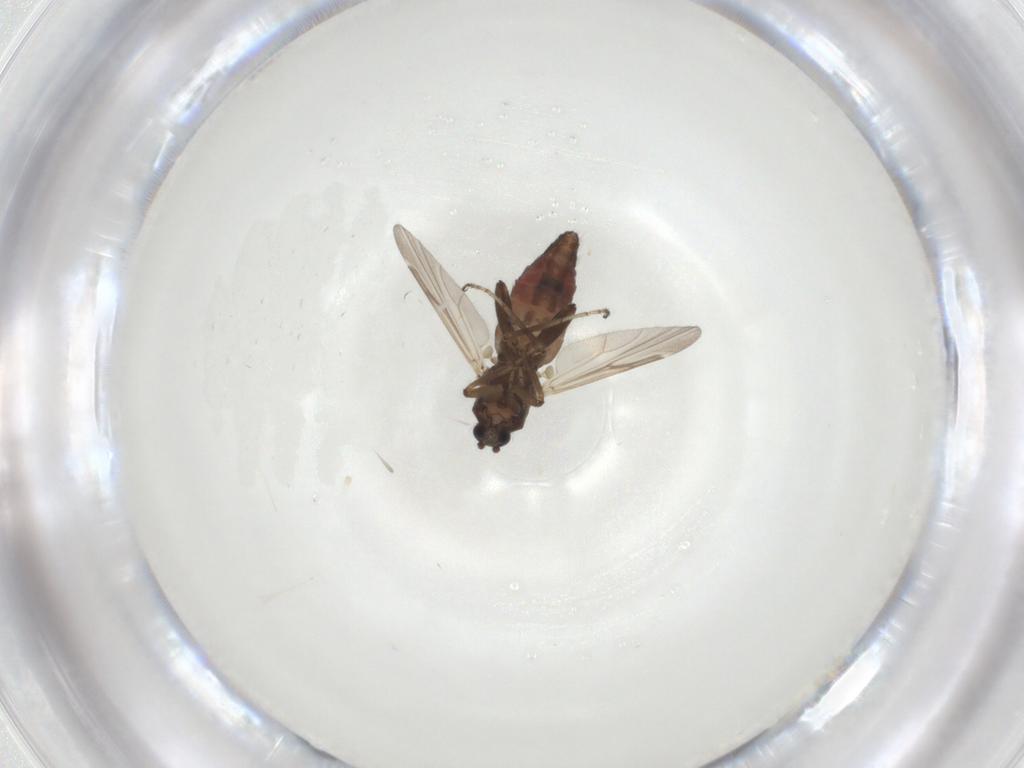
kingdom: Animalia
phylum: Arthropoda
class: Insecta
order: Diptera
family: Ceratopogonidae
